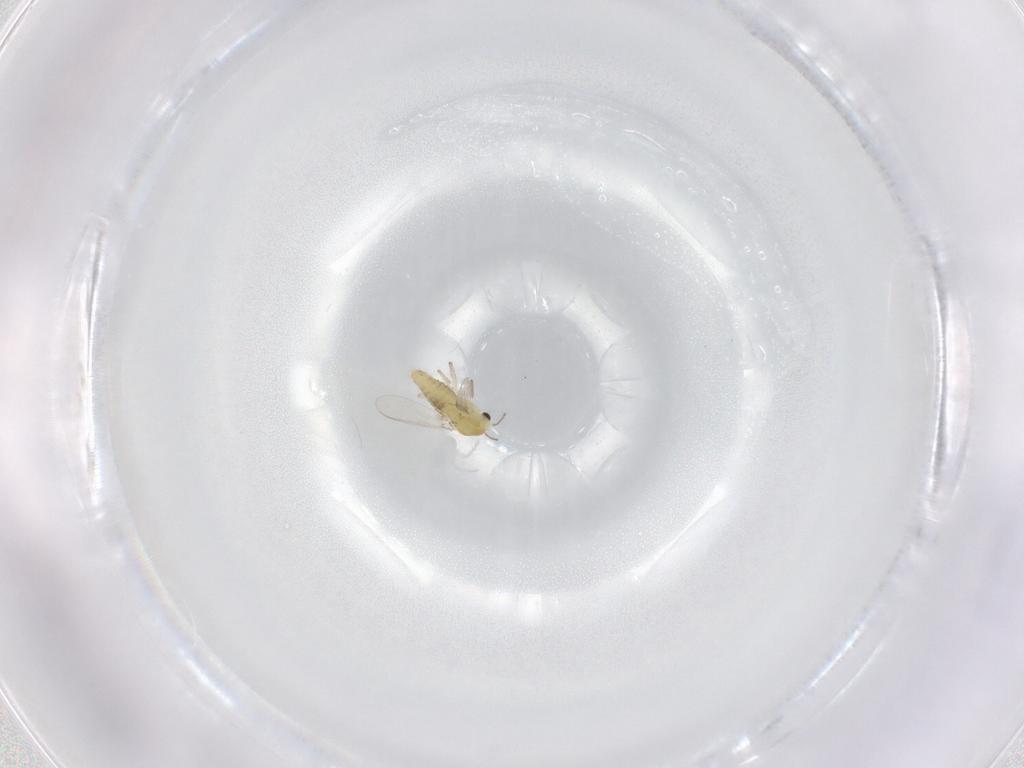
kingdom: Animalia
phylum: Arthropoda
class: Insecta
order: Diptera
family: Chironomidae
